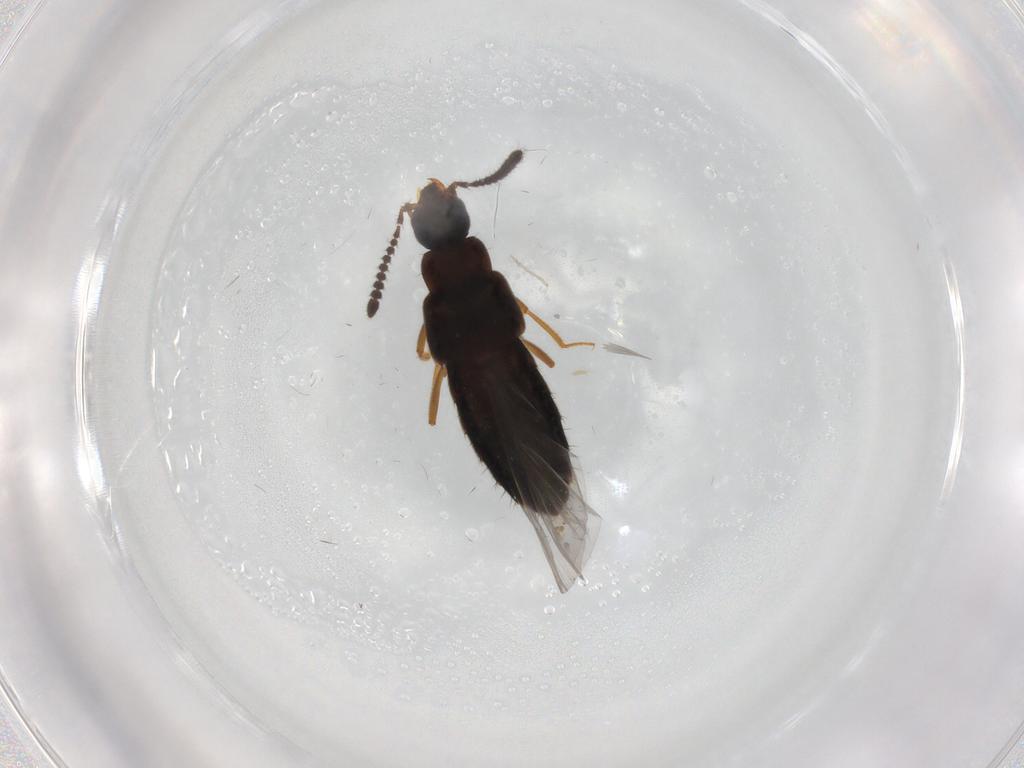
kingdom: Animalia
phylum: Arthropoda
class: Insecta
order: Coleoptera
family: Staphylinidae
